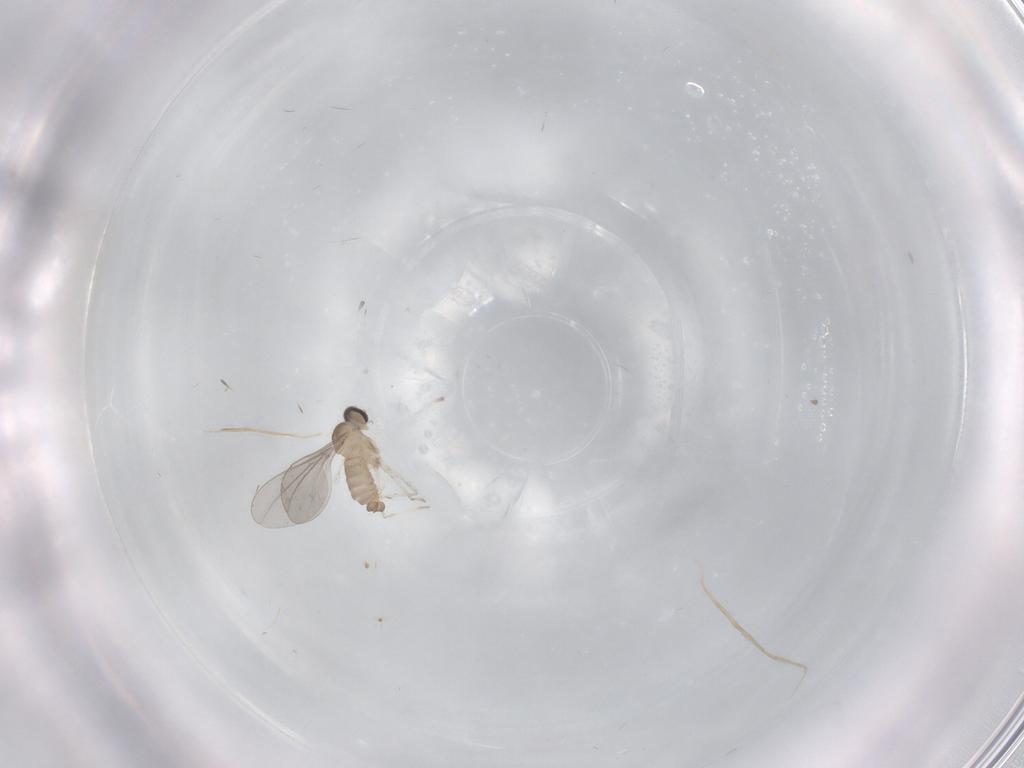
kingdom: Animalia
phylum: Arthropoda
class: Insecta
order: Diptera
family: Cecidomyiidae
